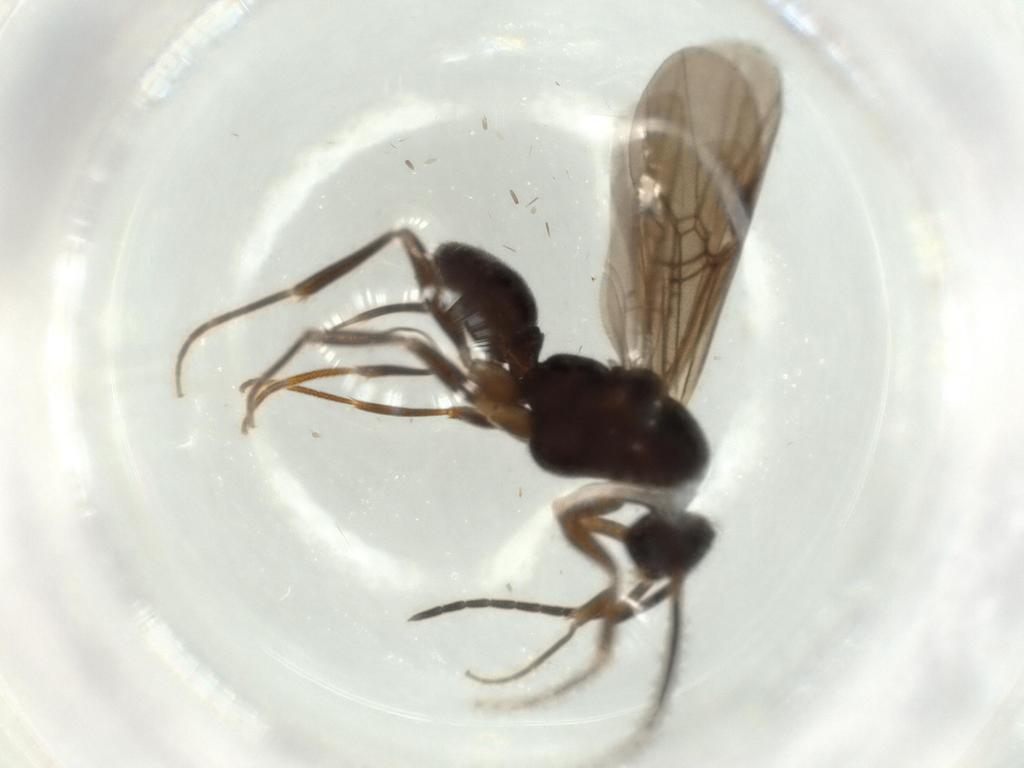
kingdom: Animalia
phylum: Arthropoda
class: Insecta
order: Hymenoptera
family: Formicidae
